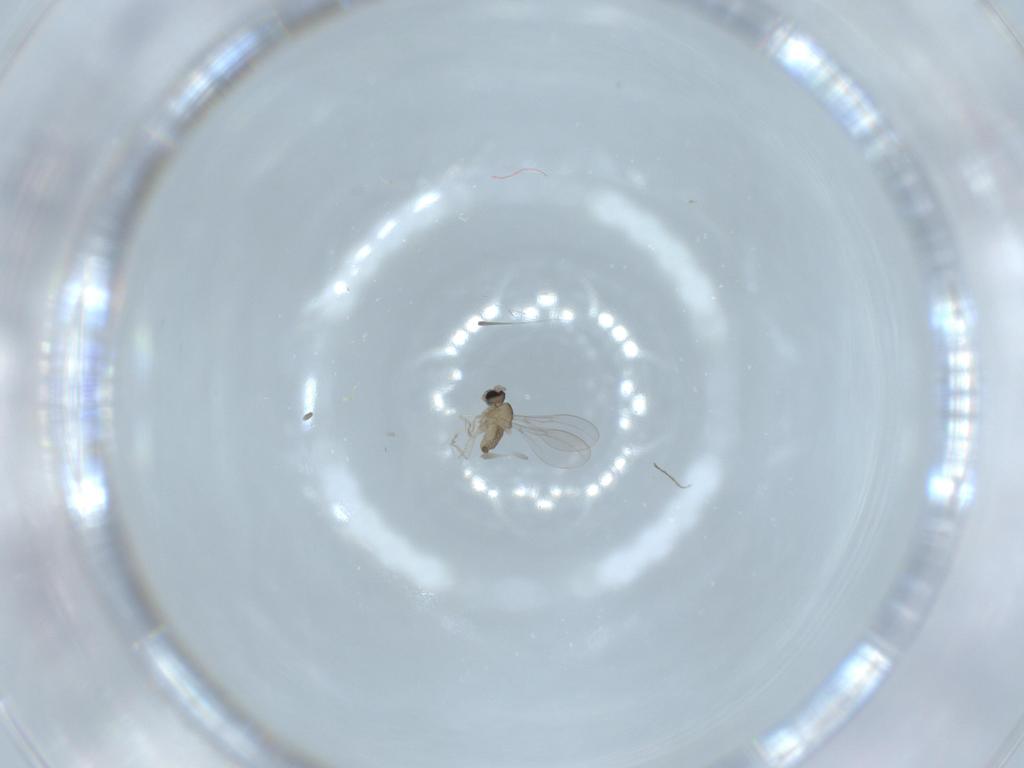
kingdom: Animalia
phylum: Arthropoda
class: Insecta
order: Diptera
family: Cecidomyiidae
